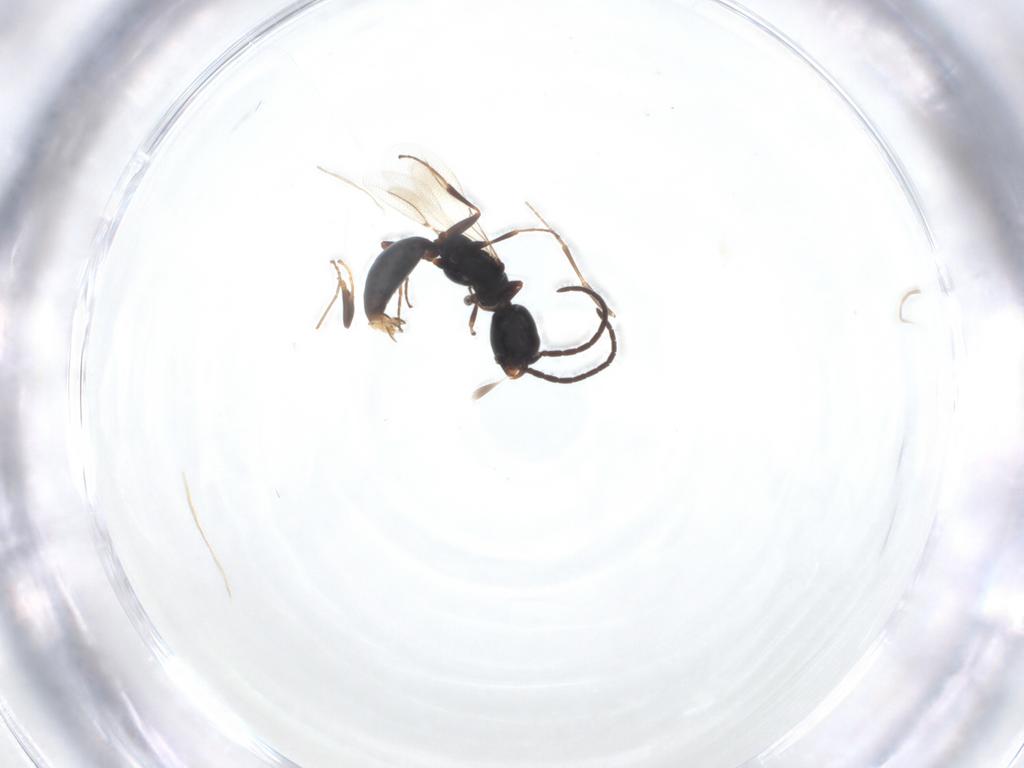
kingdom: Animalia
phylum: Arthropoda
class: Insecta
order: Hymenoptera
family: Bethylidae
